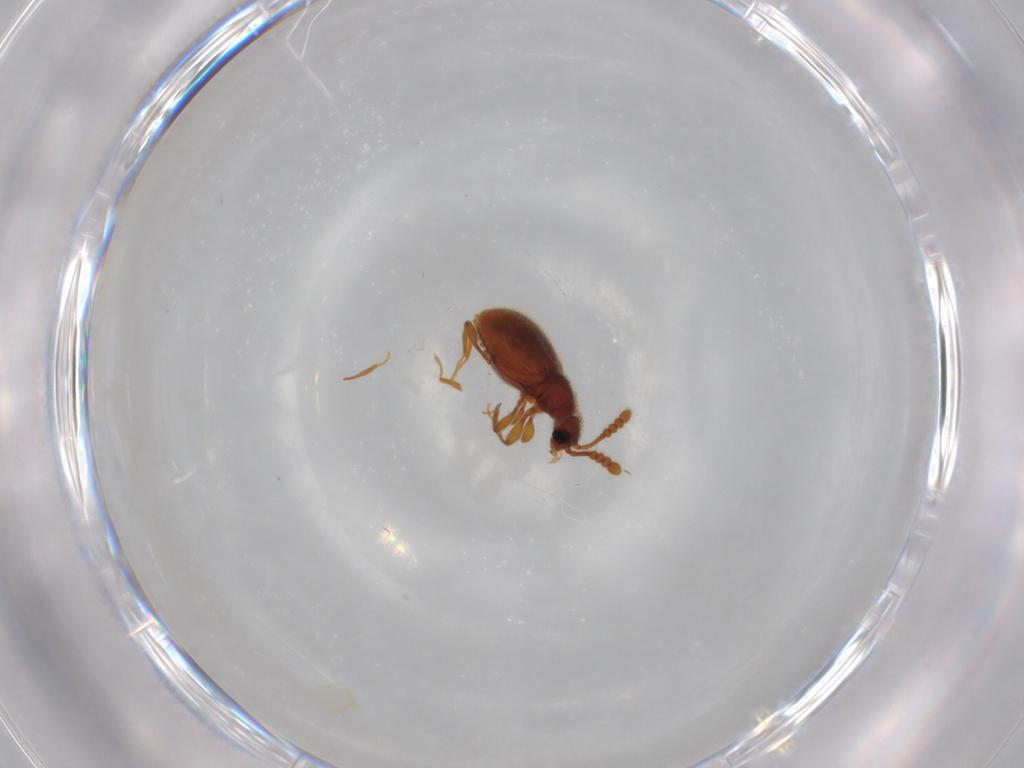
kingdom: Animalia
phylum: Arthropoda
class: Insecta
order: Coleoptera
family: Staphylinidae
